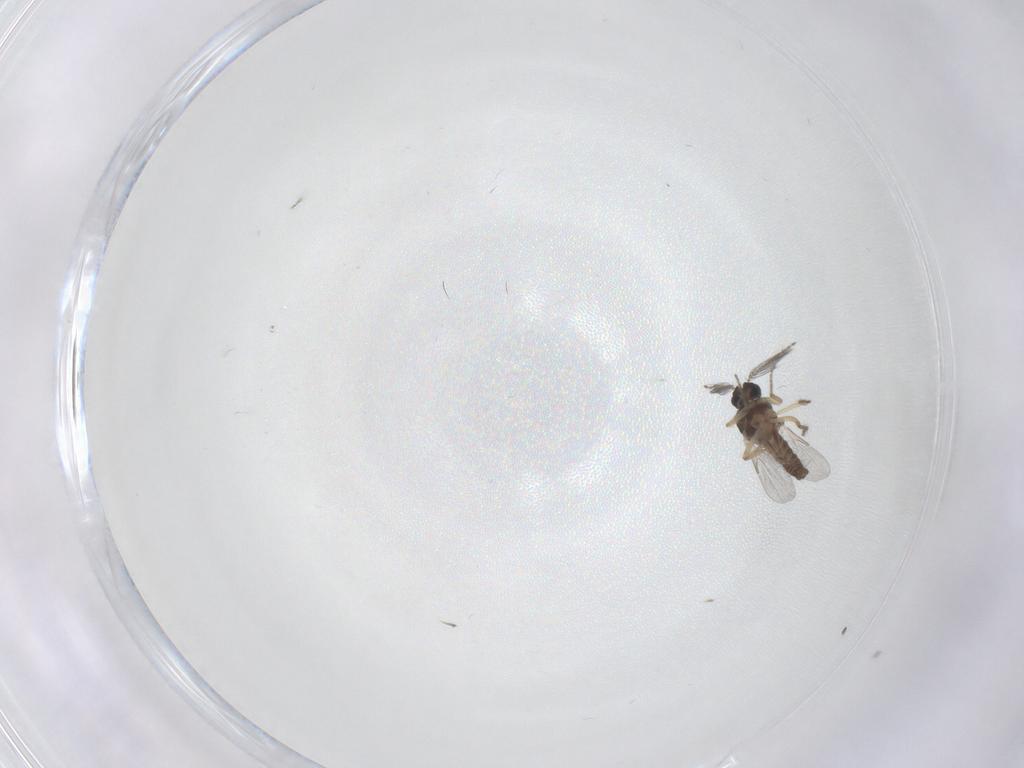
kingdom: Animalia
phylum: Arthropoda
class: Insecta
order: Diptera
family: Ceratopogonidae
